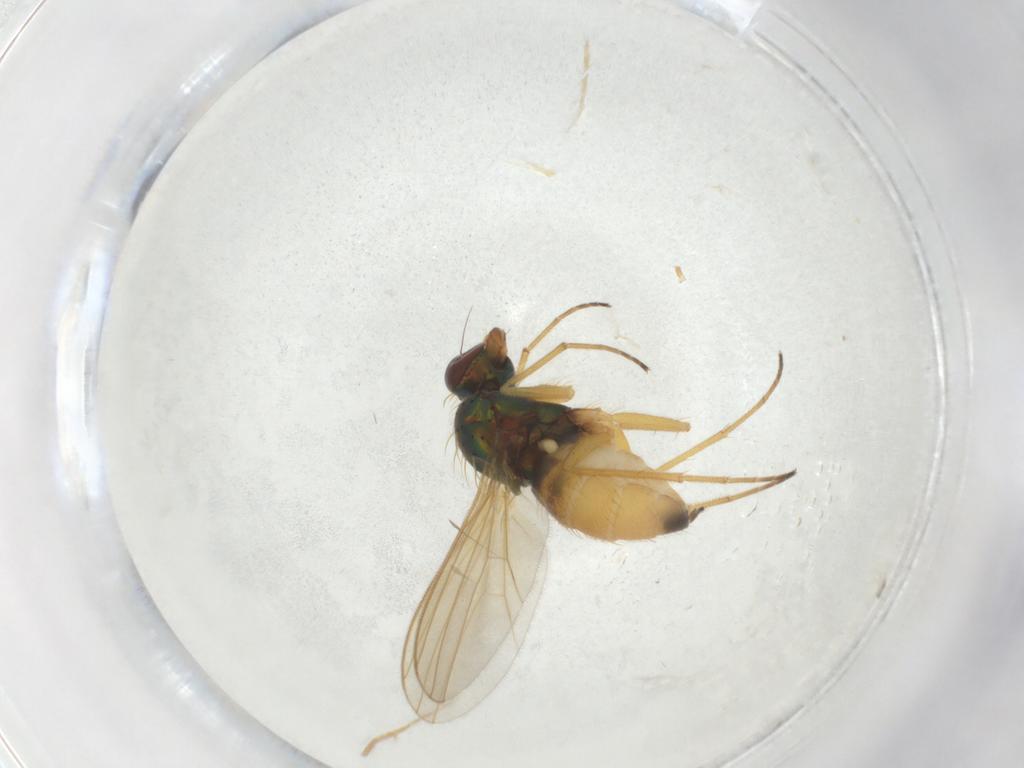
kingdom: Animalia
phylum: Arthropoda
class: Insecta
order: Diptera
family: Dolichopodidae
